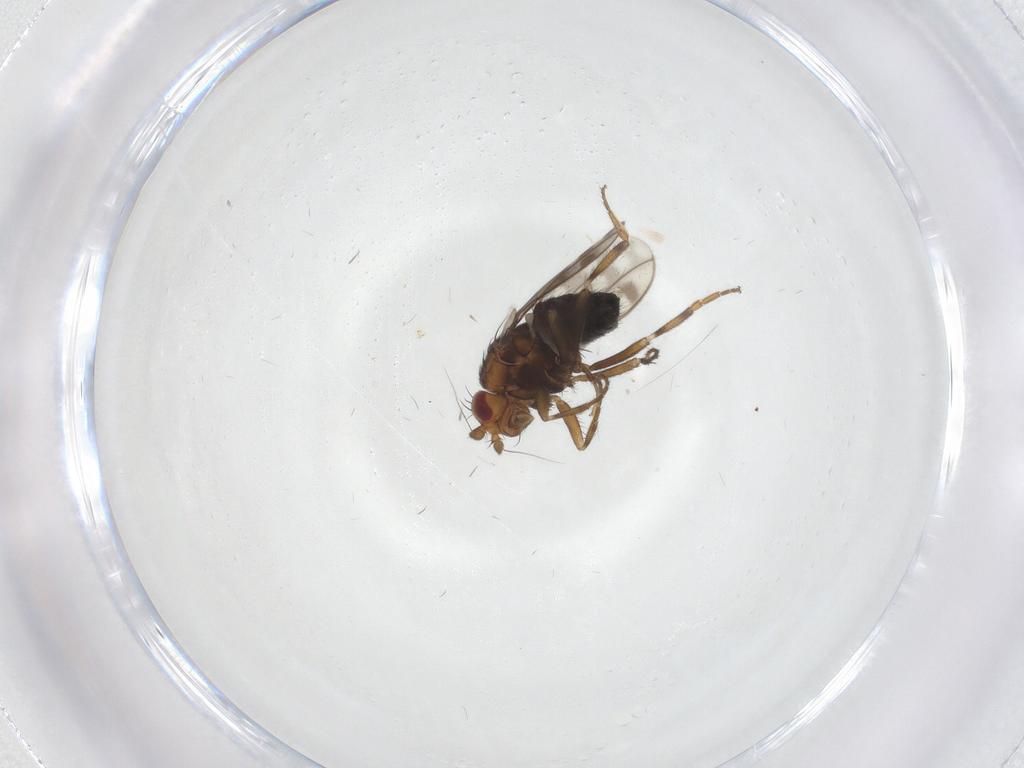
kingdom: Animalia
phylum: Arthropoda
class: Insecta
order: Diptera
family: Sphaeroceridae
